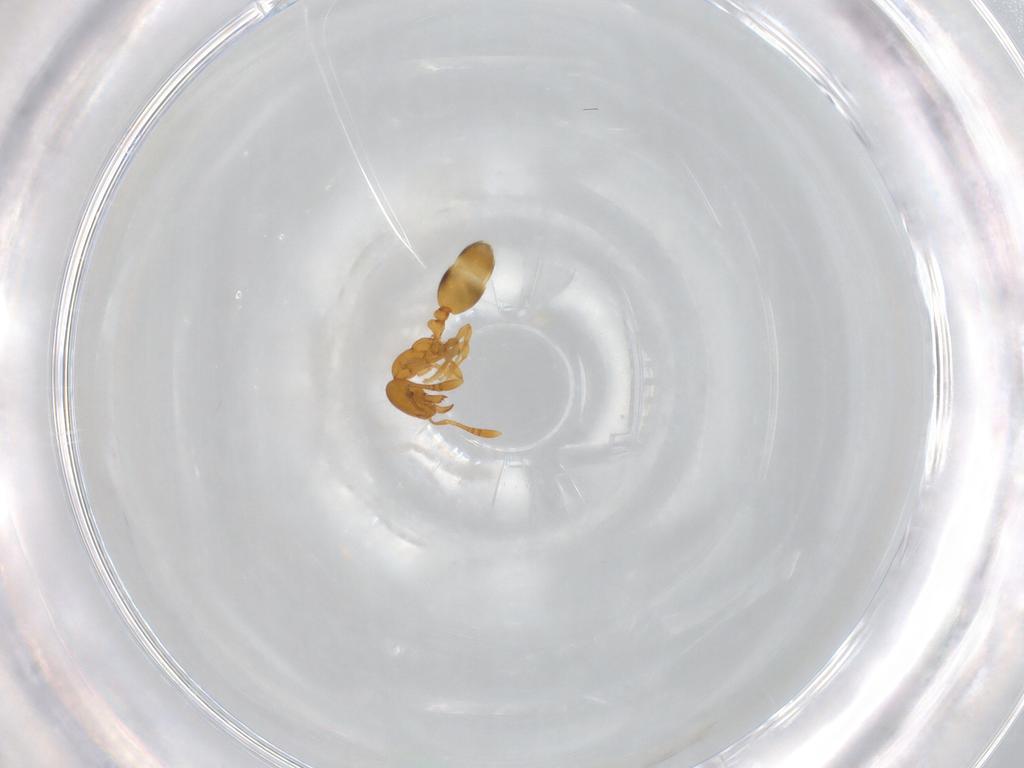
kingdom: Animalia
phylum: Arthropoda
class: Insecta
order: Hymenoptera
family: Formicidae
